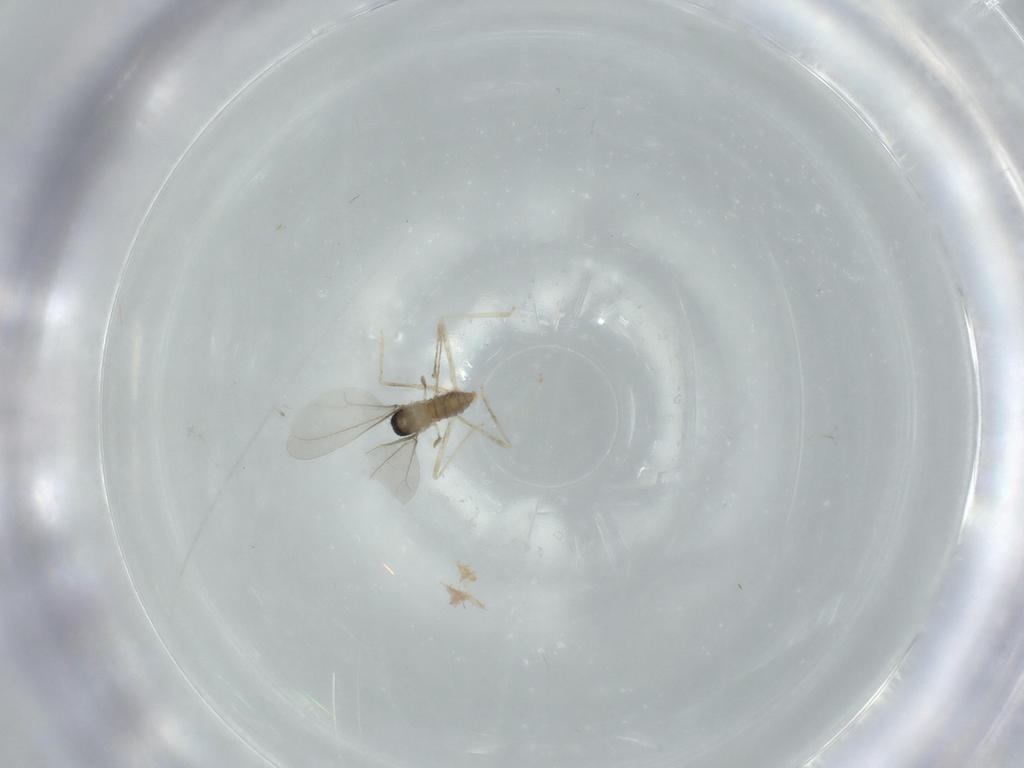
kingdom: Animalia
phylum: Arthropoda
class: Insecta
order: Diptera
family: Cecidomyiidae
